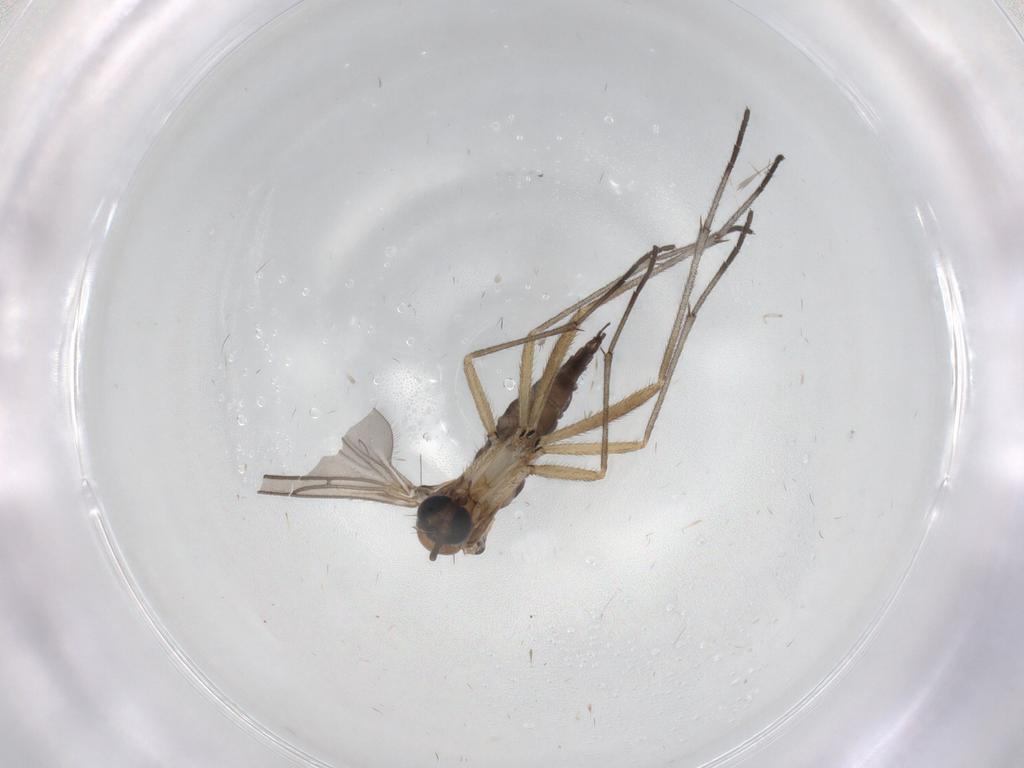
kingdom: Animalia
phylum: Arthropoda
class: Insecta
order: Diptera
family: Sciaridae
